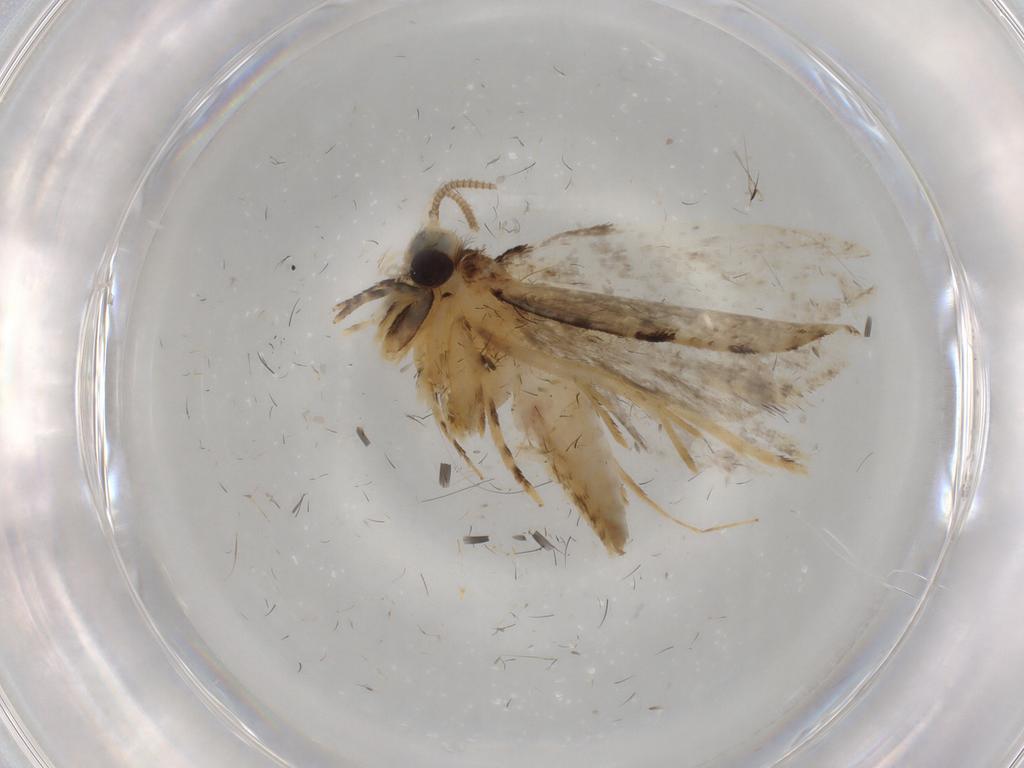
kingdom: Animalia
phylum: Arthropoda
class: Insecta
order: Lepidoptera
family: Tineidae
